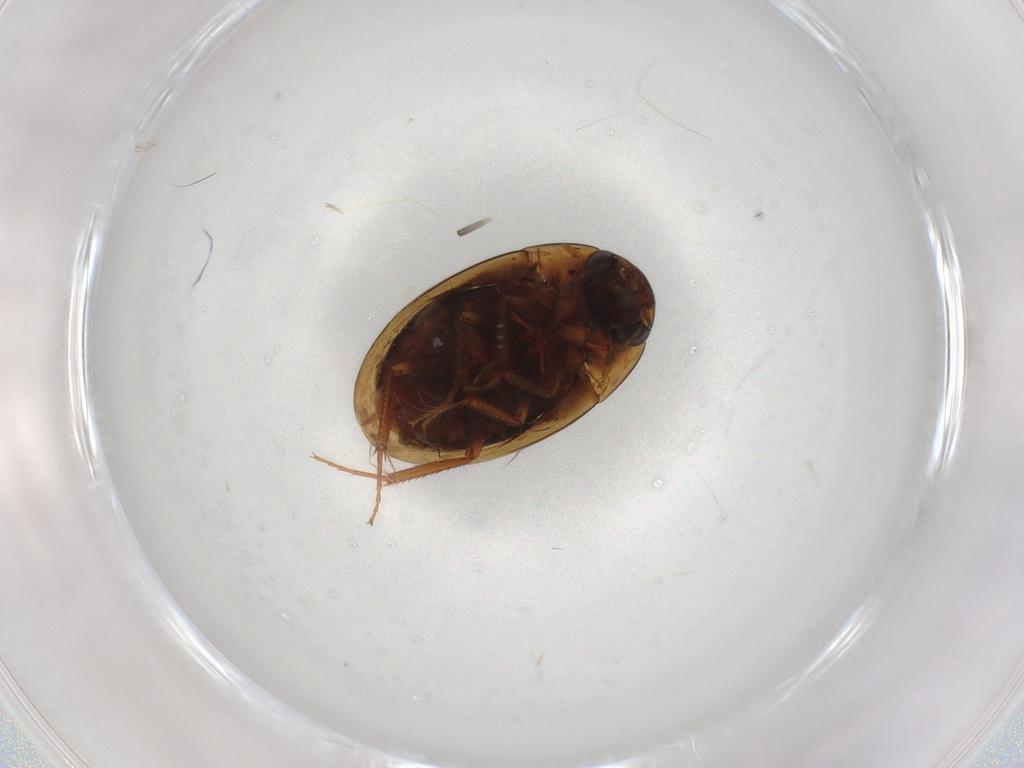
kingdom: Animalia
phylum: Arthropoda
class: Insecta
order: Coleoptera
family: Hydrophilidae
